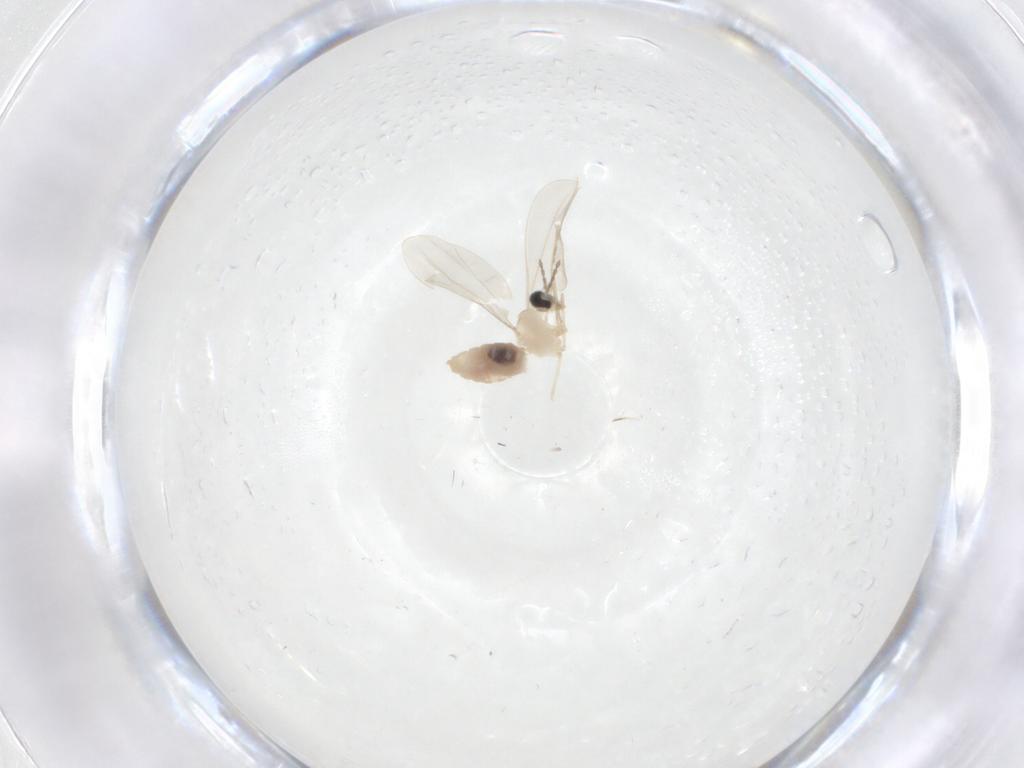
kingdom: Animalia
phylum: Arthropoda
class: Insecta
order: Diptera
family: Cecidomyiidae
